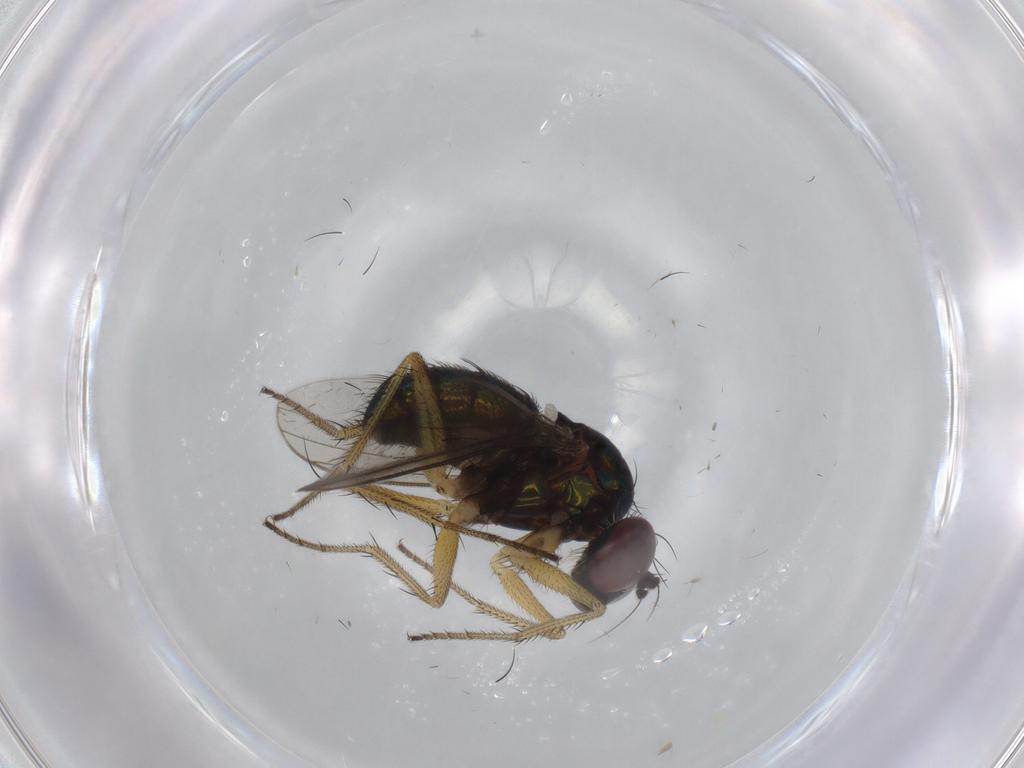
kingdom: Animalia
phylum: Arthropoda
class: Insecta
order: Diptera
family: Dolichopodidae
